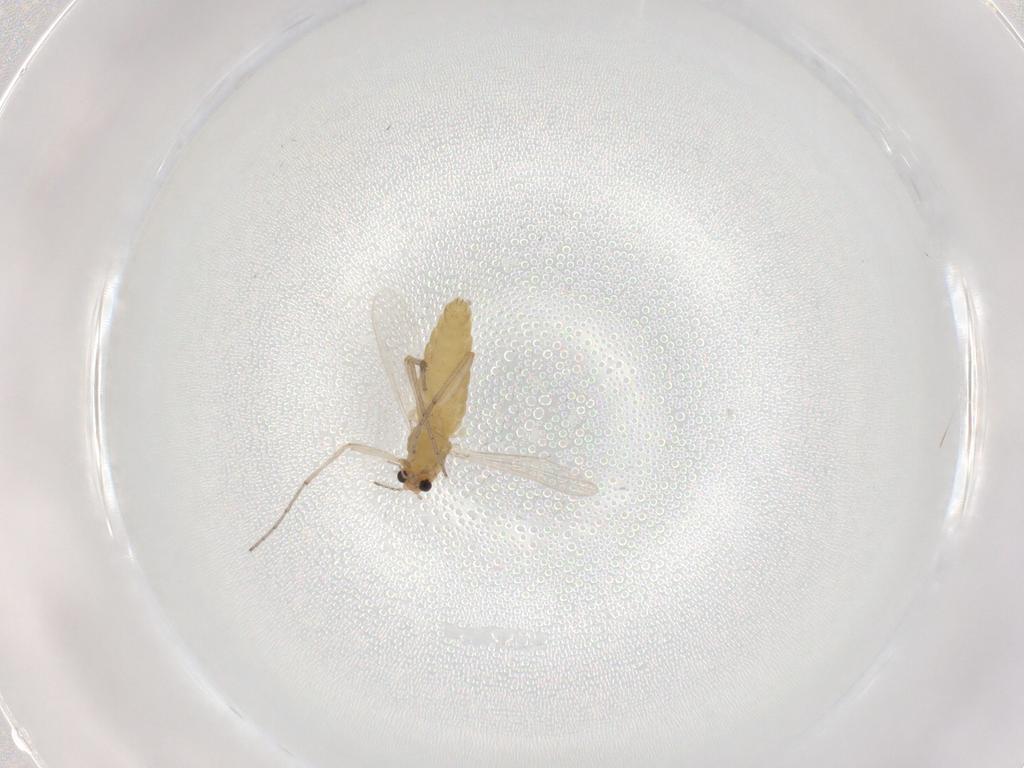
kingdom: Animalia
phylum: Arthropoda
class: Insecta
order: Diptera
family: Chironomidae
